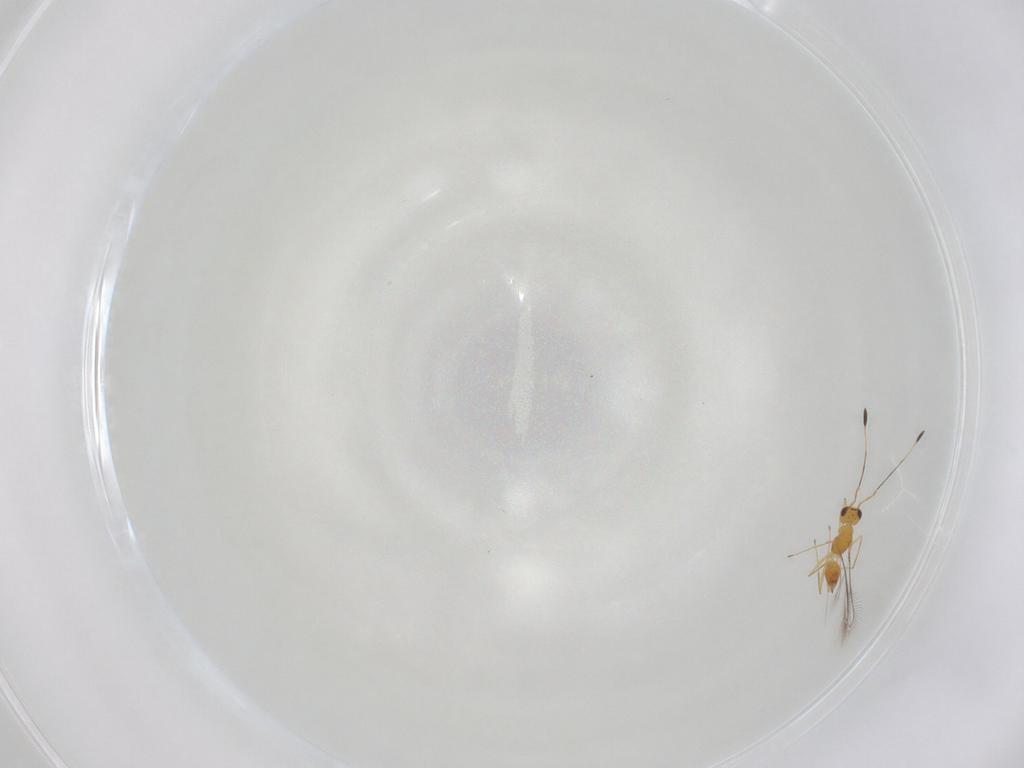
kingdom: Animalia
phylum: Arthropoda
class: Insecta
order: Hymenoptera
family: Mymaridae
